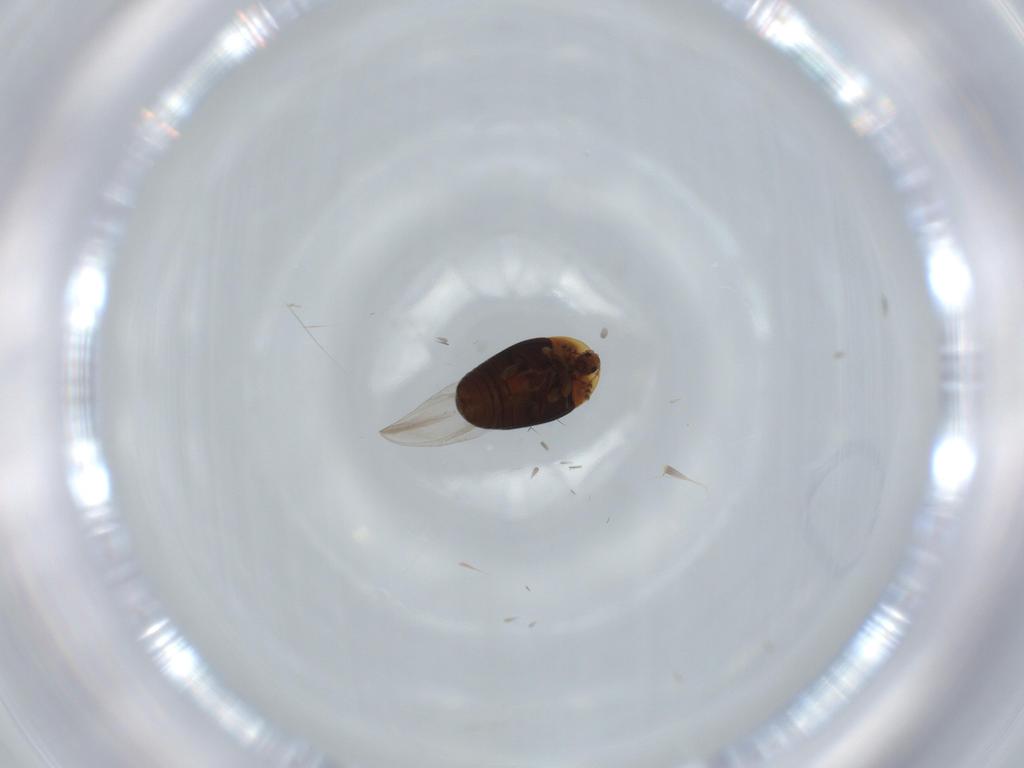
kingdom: Animalia
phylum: Arthropoda
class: Insecta
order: Coleoptera
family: Corylophidae
